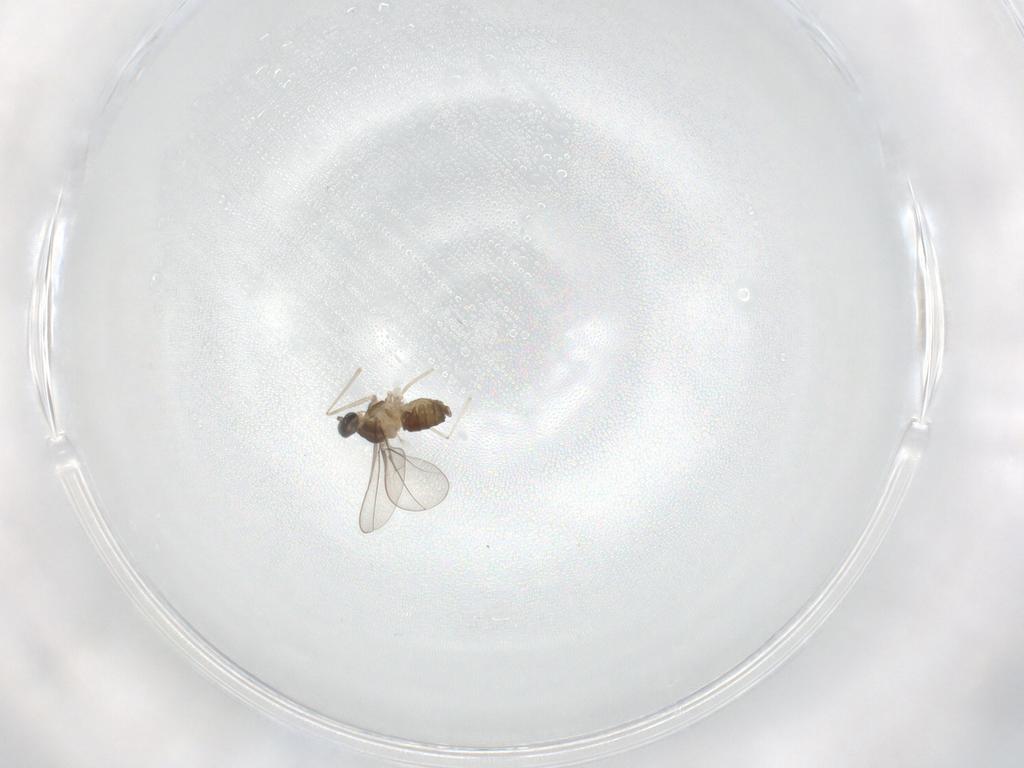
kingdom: Animalia
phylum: Arthropoda
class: Insecta
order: Diptera
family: Cecidomyiidae
